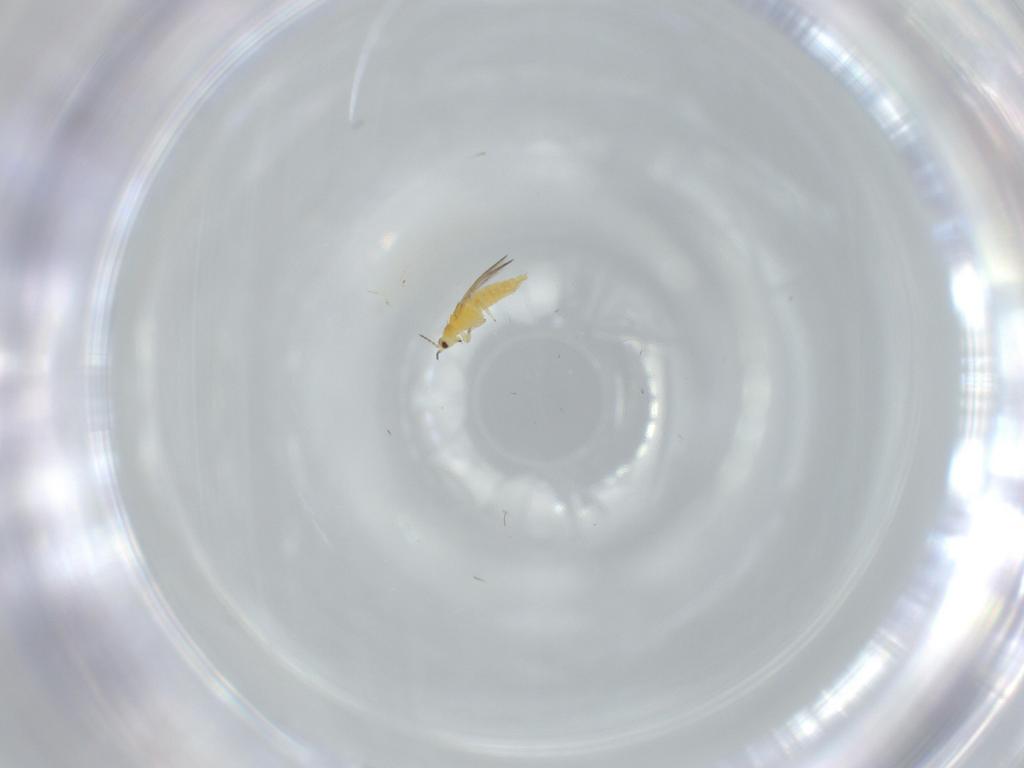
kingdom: Animalia
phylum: Arthropoda
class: Insecta
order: Thysanoptera
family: Thripidae
